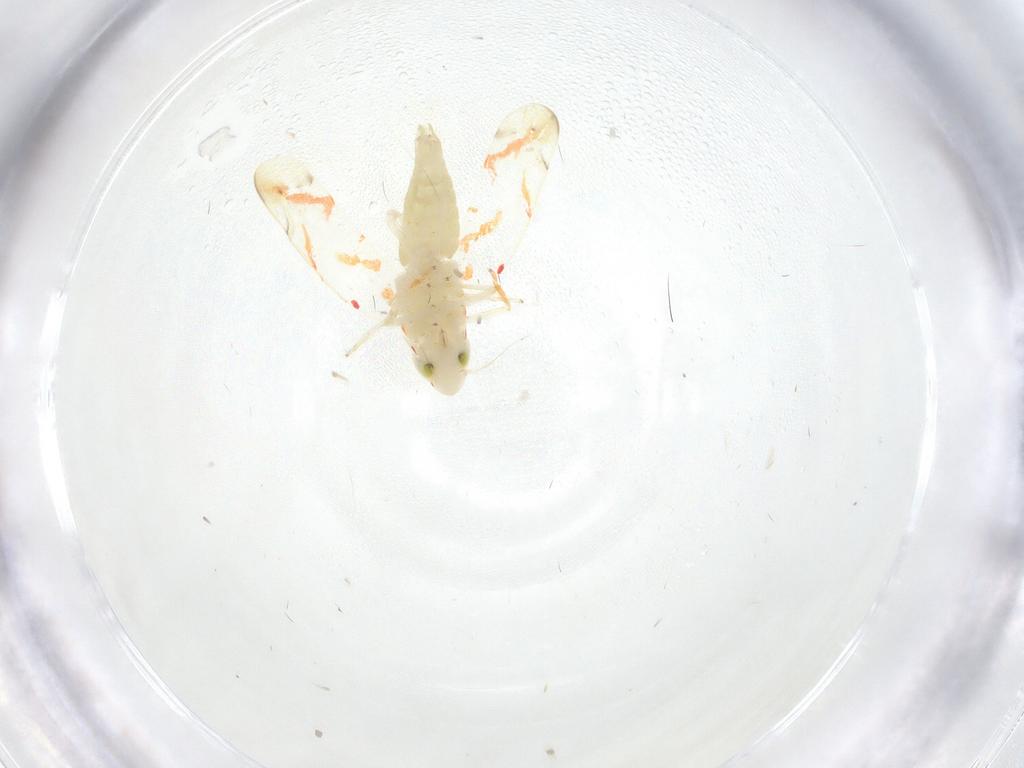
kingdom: Animalia
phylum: Arthropoda
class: Insecta
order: Hemiptera
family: Cicadellidae
